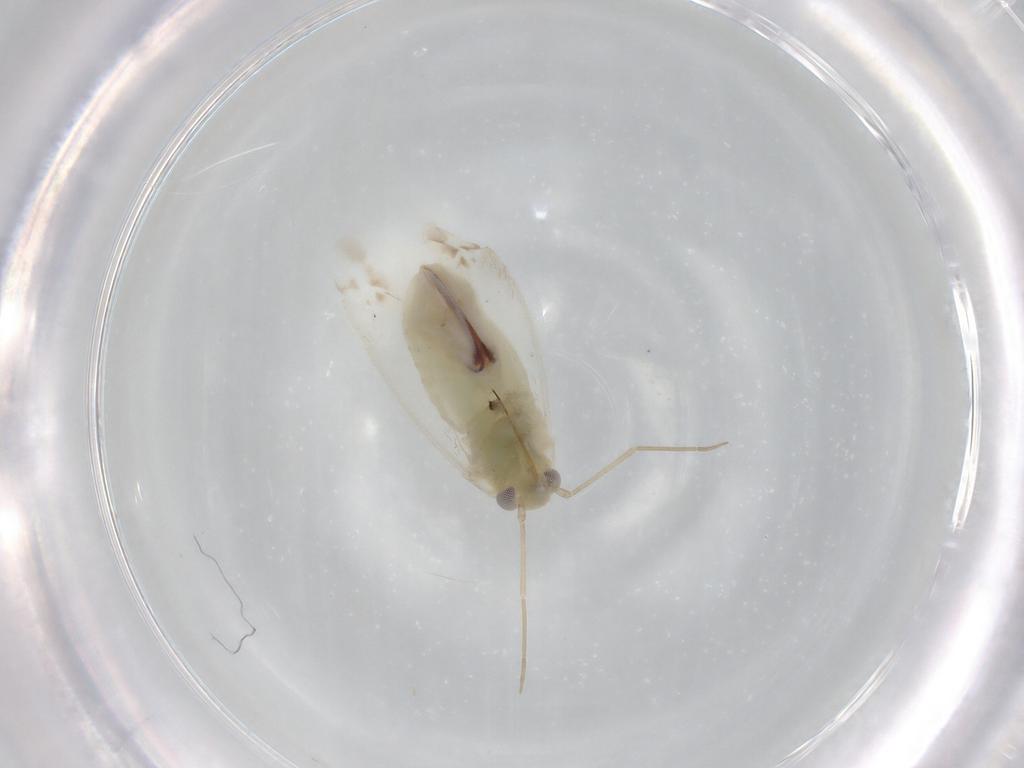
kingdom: Animalia
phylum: Arthropoda
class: Insecta
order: Hemiptera
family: Miridae
